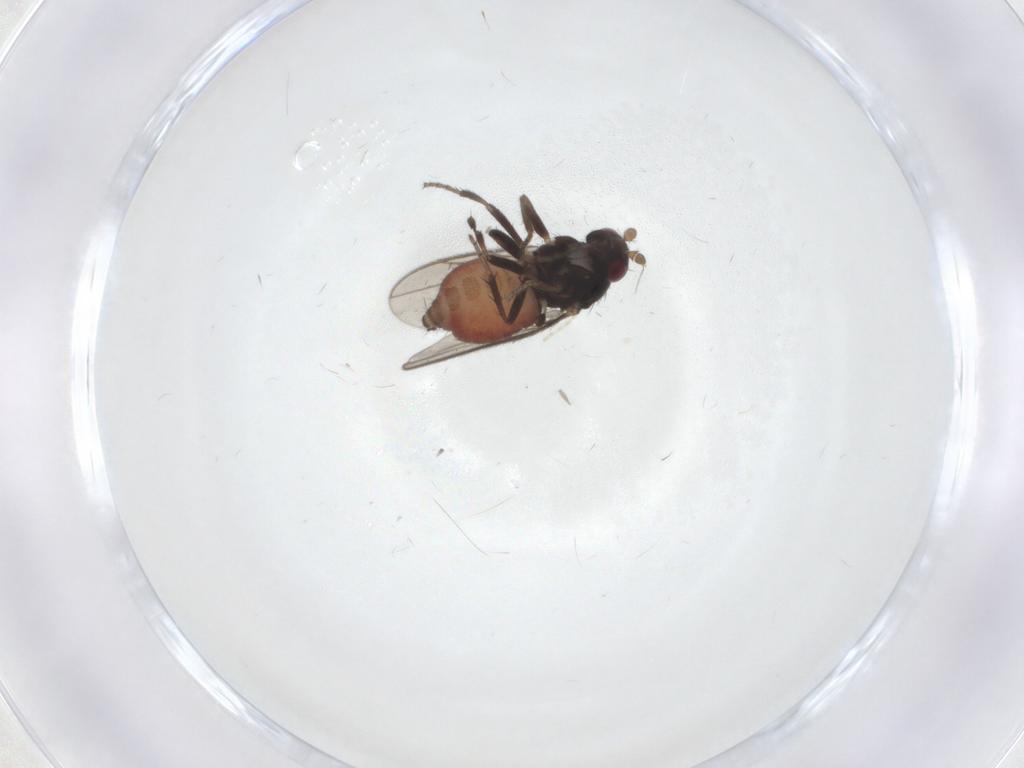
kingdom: Animalia
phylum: Arthropoda
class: Insecta
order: Diptera
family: Sphaeroceridae
